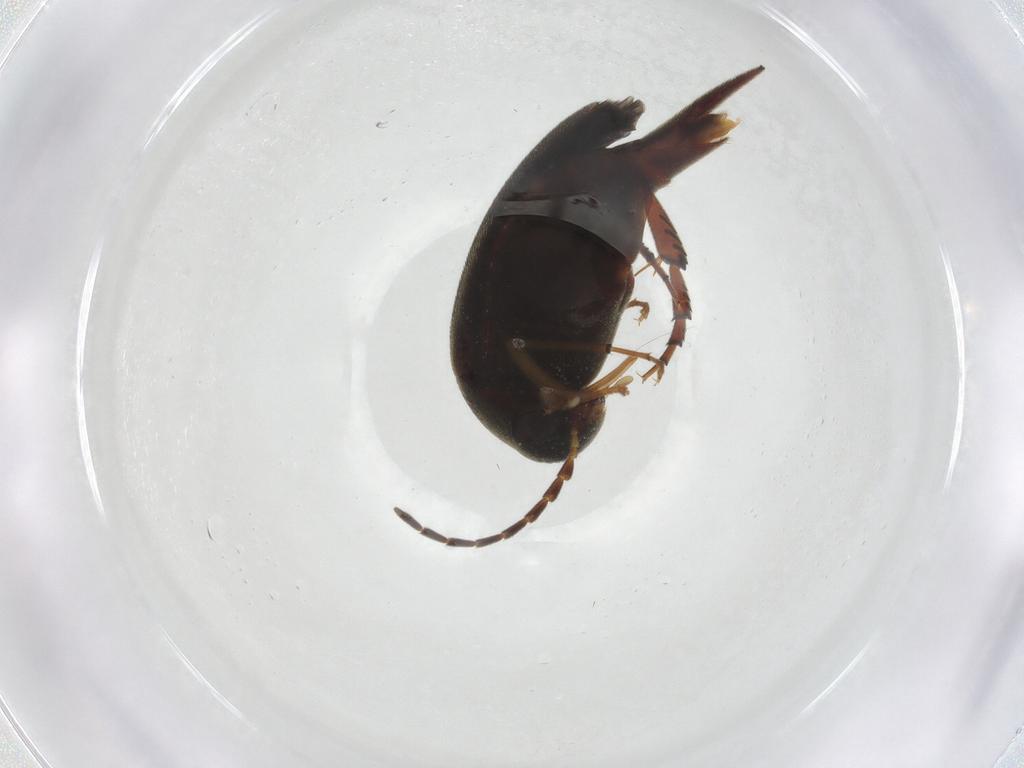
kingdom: Animalia
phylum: Arthropoda
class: Insecta
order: Coleoptera
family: Mordellidae
